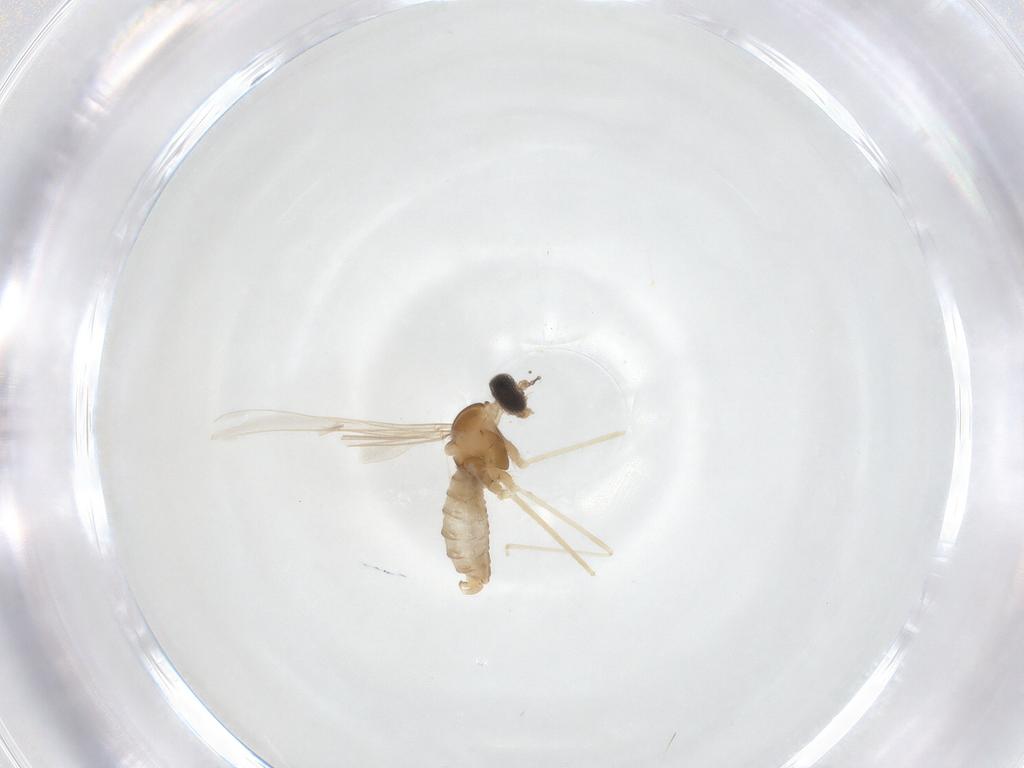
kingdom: Animalia
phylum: Arthropoda
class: Insecta
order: Diptera
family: Cecidomyiidae
